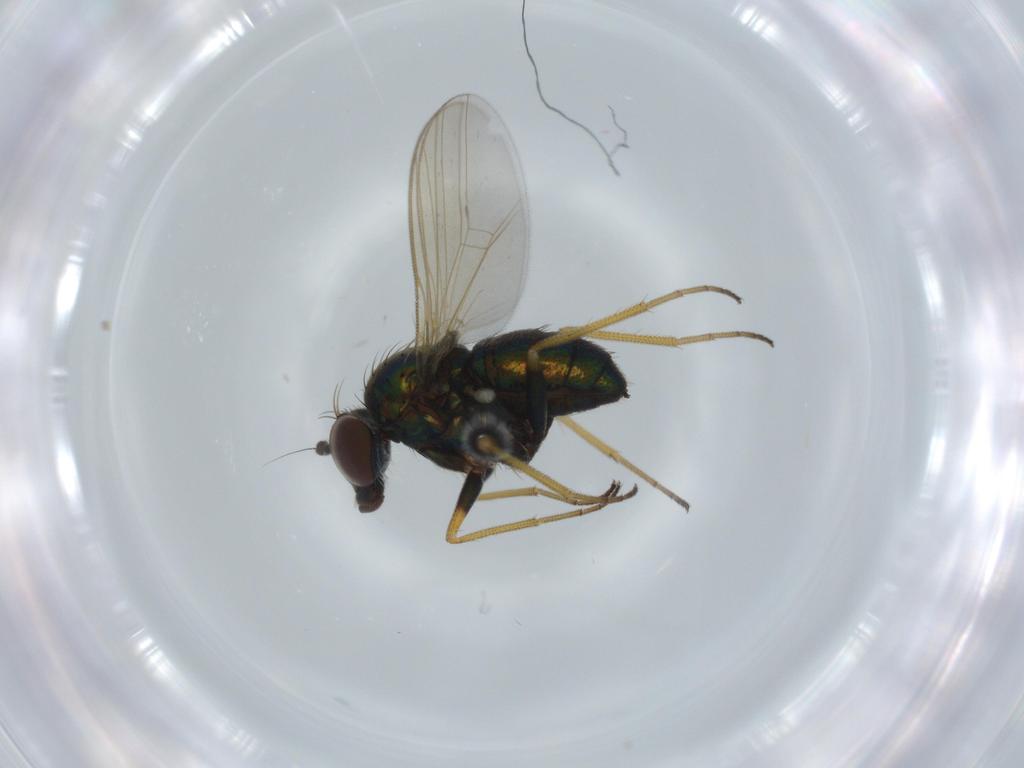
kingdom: Animalia
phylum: Arthropoda
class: Insecta
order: Diptera
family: Dolichopodidae
